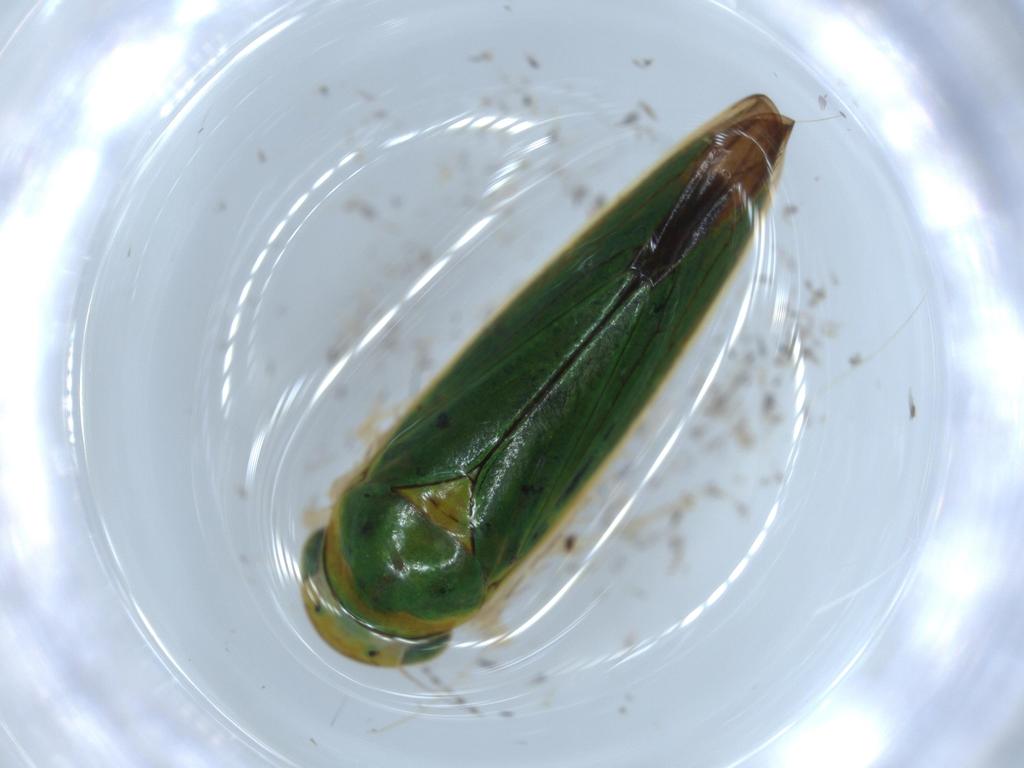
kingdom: Animalia
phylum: Arthropoda
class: Insecta
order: Hemiptera
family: Cicadellidae
